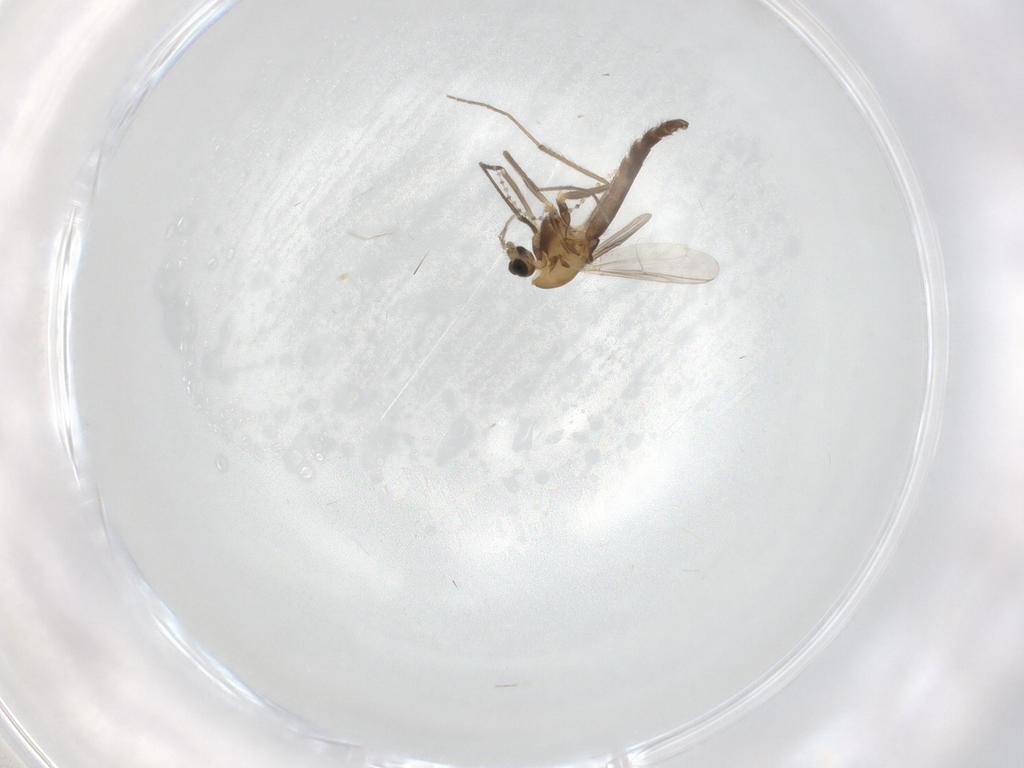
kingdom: Animalia
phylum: Arthropoda
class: Insecta
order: Diptera
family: Chironomidae
